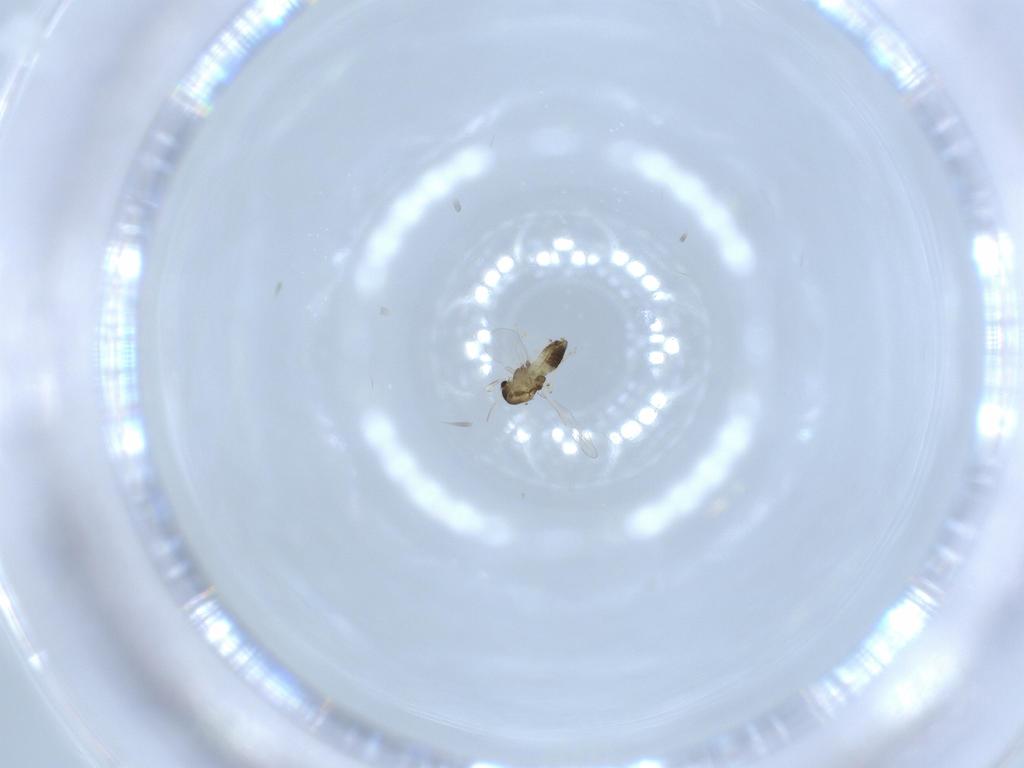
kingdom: Animalia
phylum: Arthropoda
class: Insecta
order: Diptera
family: Chironomidae
